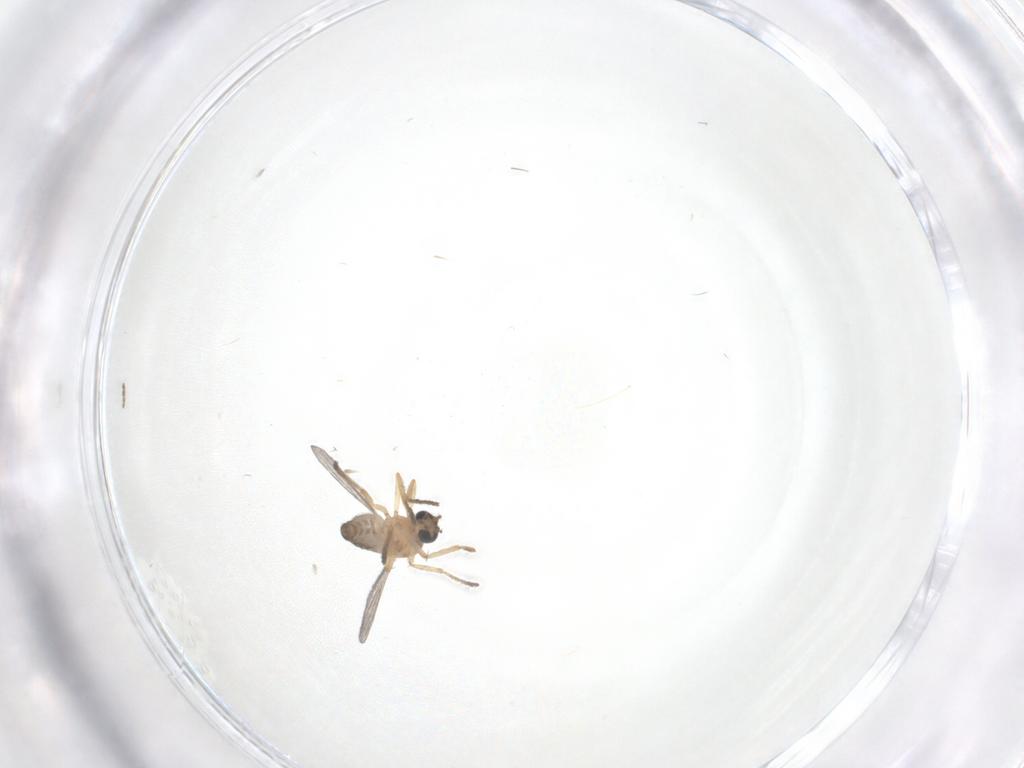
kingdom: Animalia
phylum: Arthropoda
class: Insecta
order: Diptera
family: Ceratopogonidae
